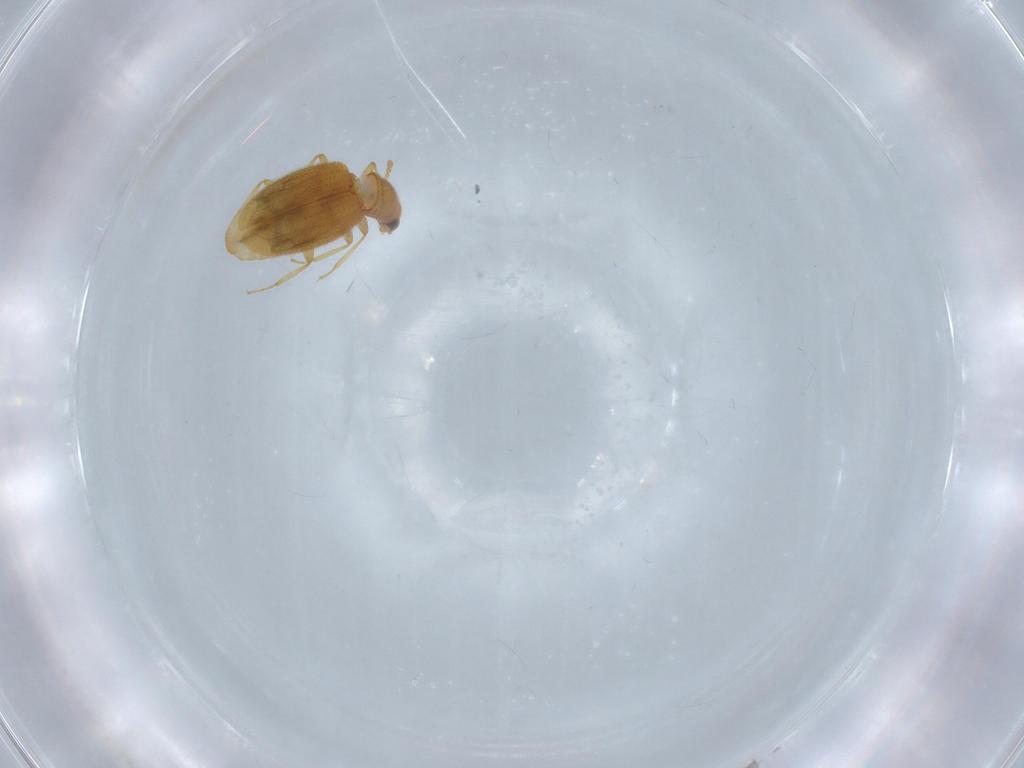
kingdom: Animalia
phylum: Arthropoda
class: Insecta
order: Coleoptera
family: Latridiidae
